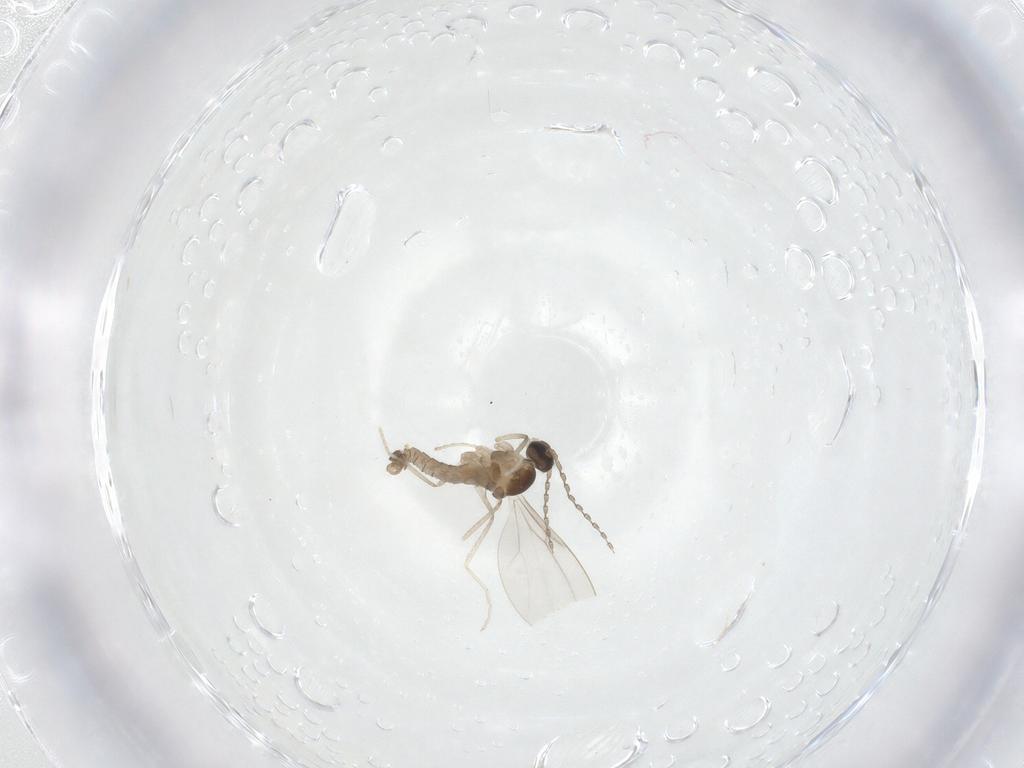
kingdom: Animalia
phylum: Arthropoda
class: Insecta
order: Diptera
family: Cecidomyiidae
